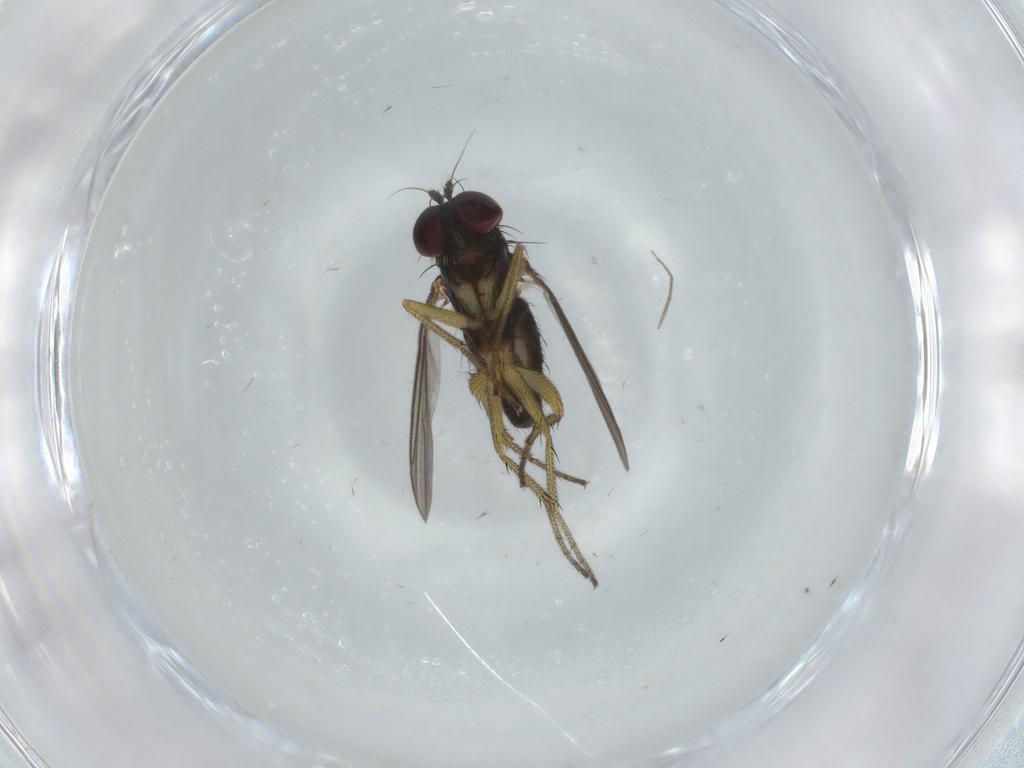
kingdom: Animalia
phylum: Arthropoda
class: Insecta
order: Diptera
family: Dolichopodidae
